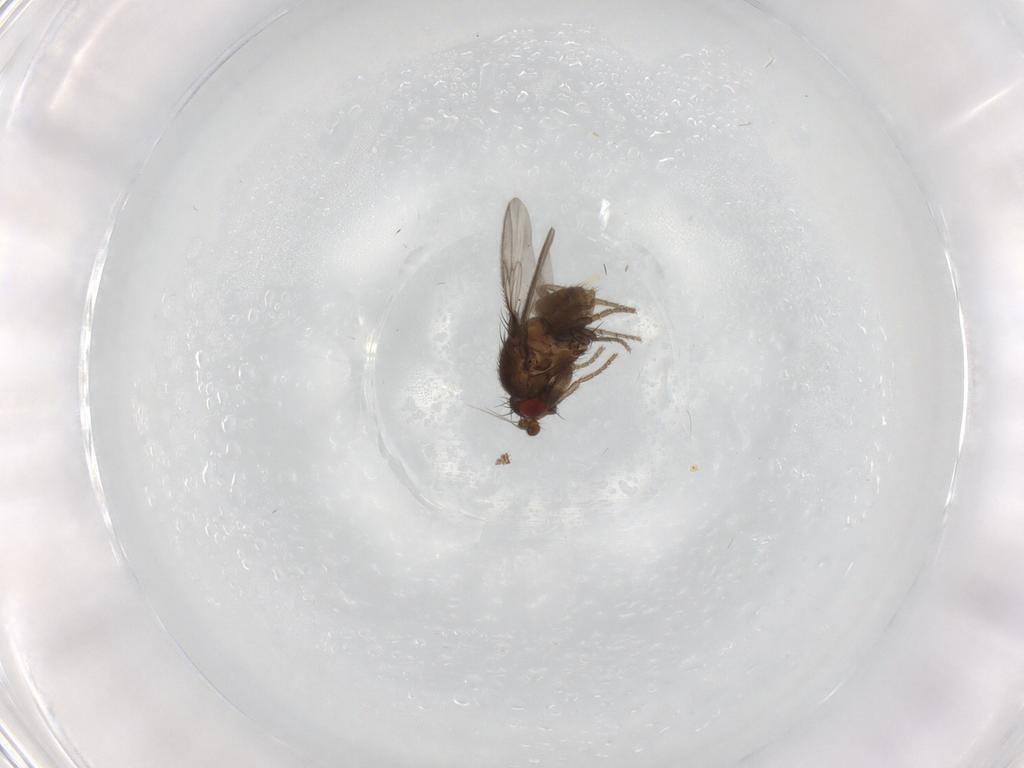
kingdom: Animalia
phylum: Arthropoda
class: Insecta
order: Diptera
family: Sphaeroceridae
